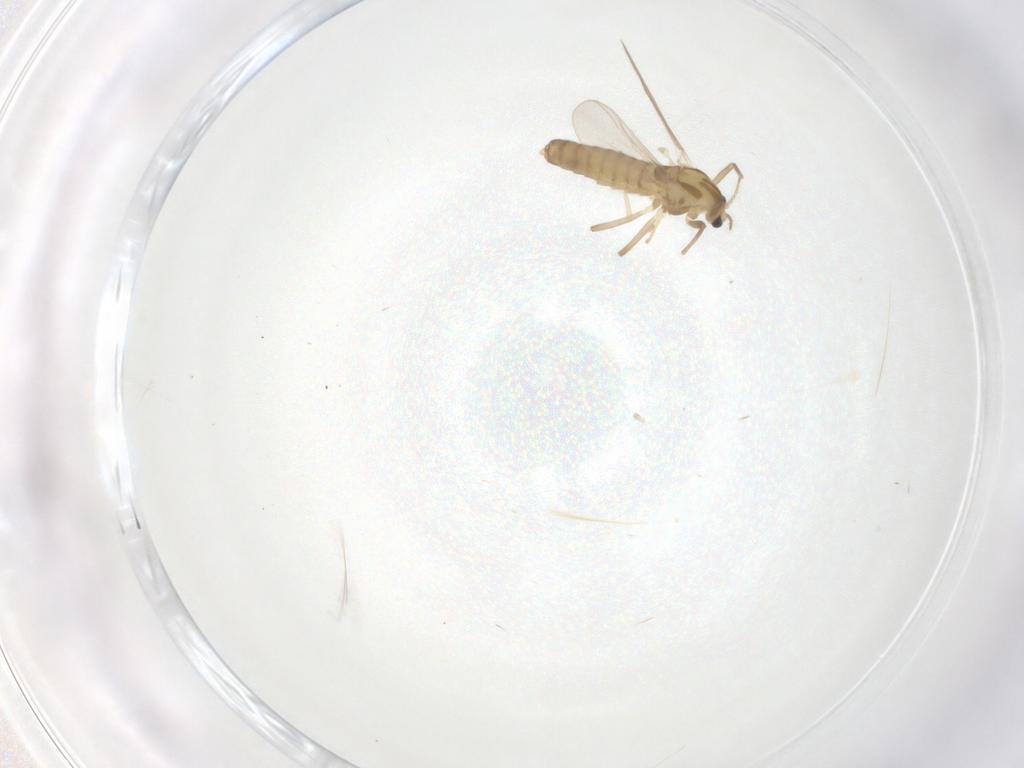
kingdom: Animalia
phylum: Arthropoda
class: Insecta
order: Diptera
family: Chironomidae
